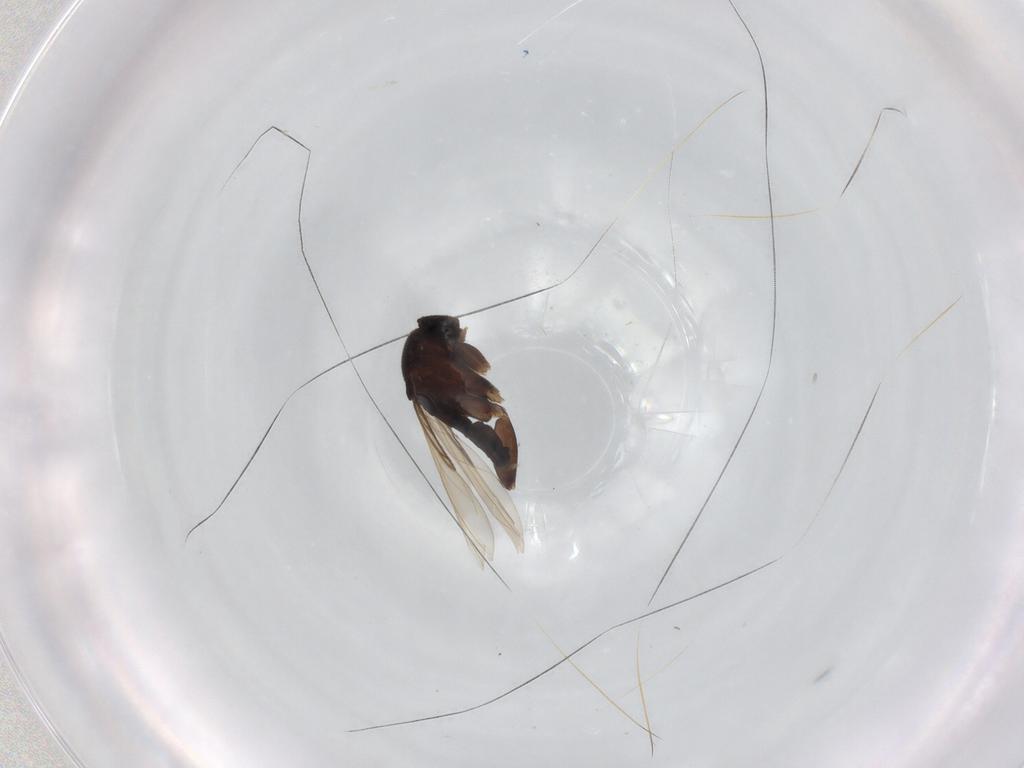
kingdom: Animalia
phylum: Arthropoda
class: Insecta
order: Diptera
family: Phoridae
